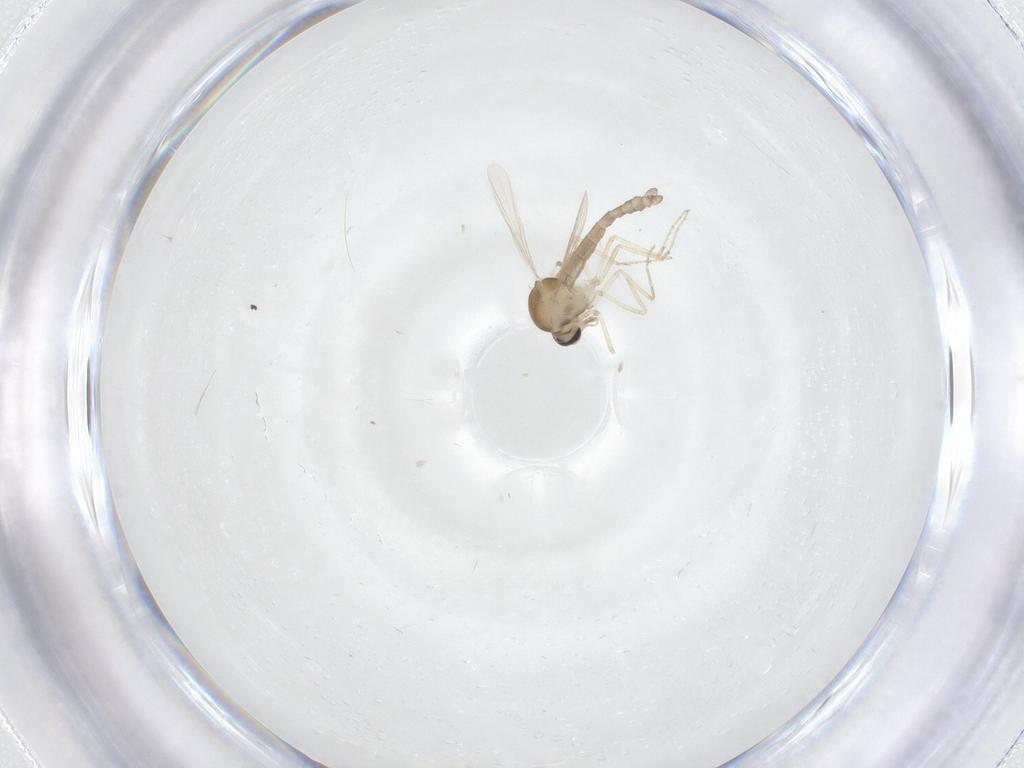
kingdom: Animalia
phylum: Arthropoda
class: Insecta
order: Diptera
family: Ceratopogonidae
